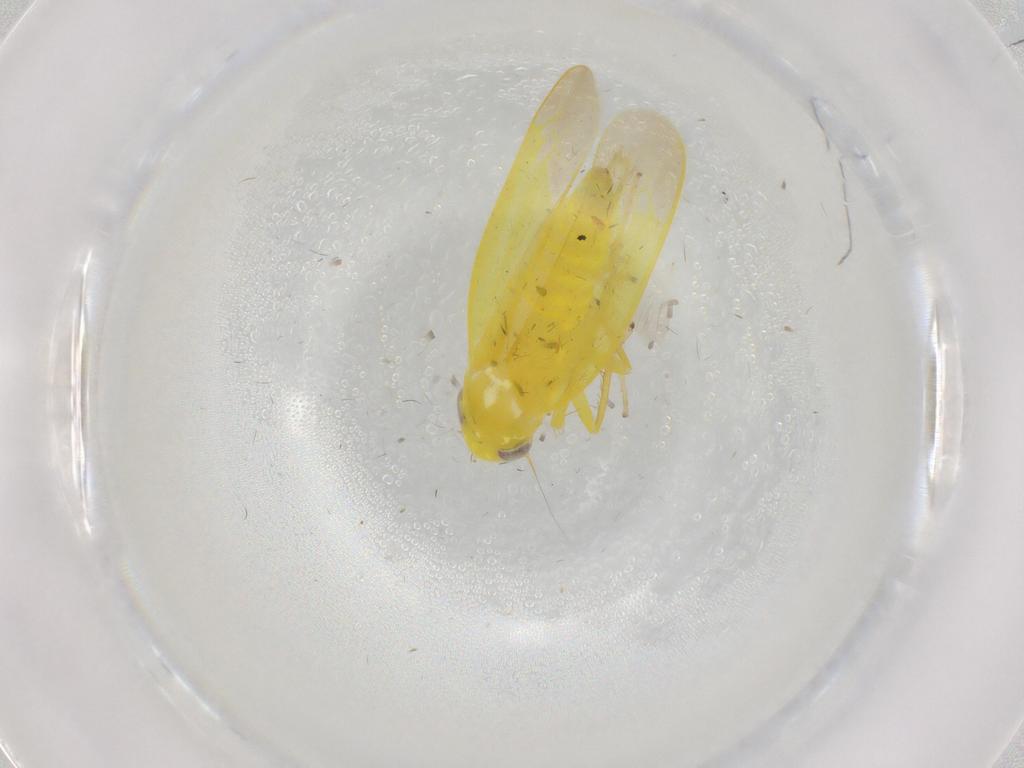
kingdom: Animalia
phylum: Arthropoda
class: Insecta
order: Hemiptera
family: Cicadellidae
